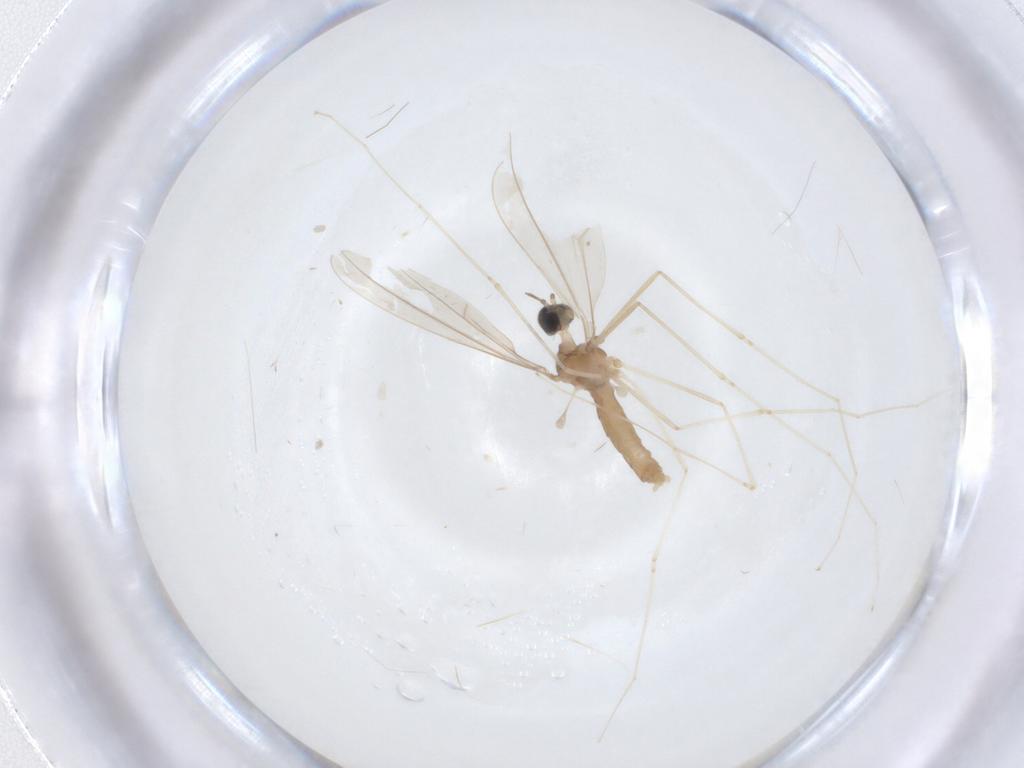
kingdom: Animalia
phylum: Arthropoda
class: Insecta
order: Diptera
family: Cecidomyiidae
